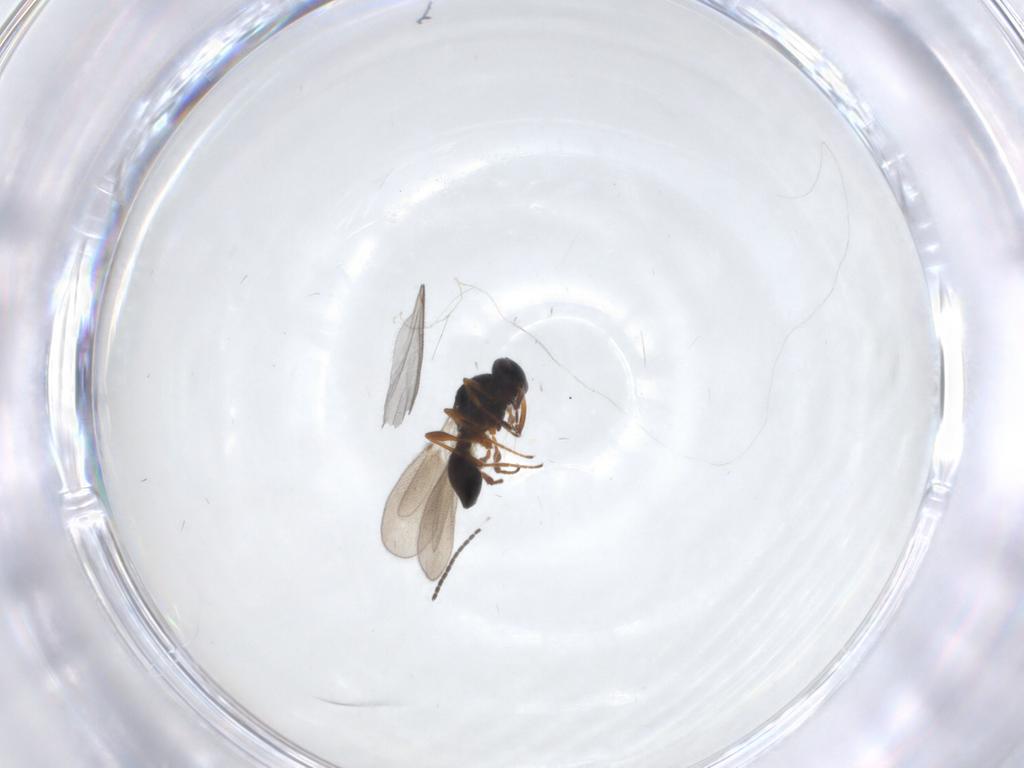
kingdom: Animalia
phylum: Arthropoda
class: Insecta
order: Hymenoptera
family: Platygastridae
